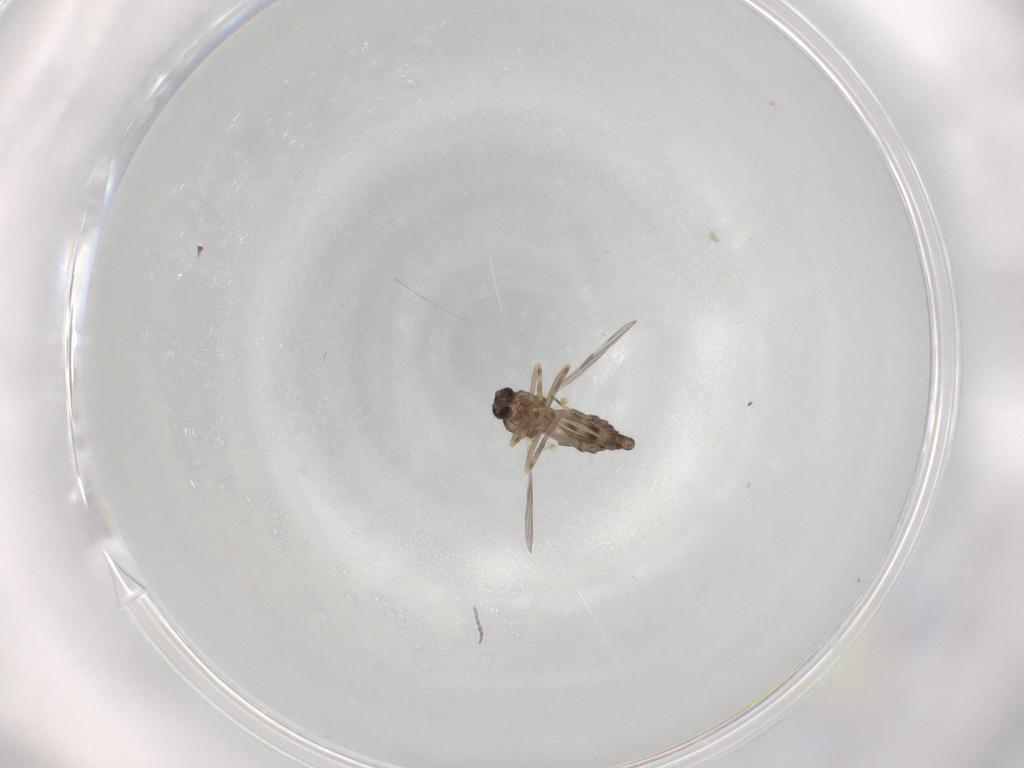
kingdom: Animalia
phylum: Arthropoda
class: Insecta
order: Diptera
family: Ceratopogonidae
